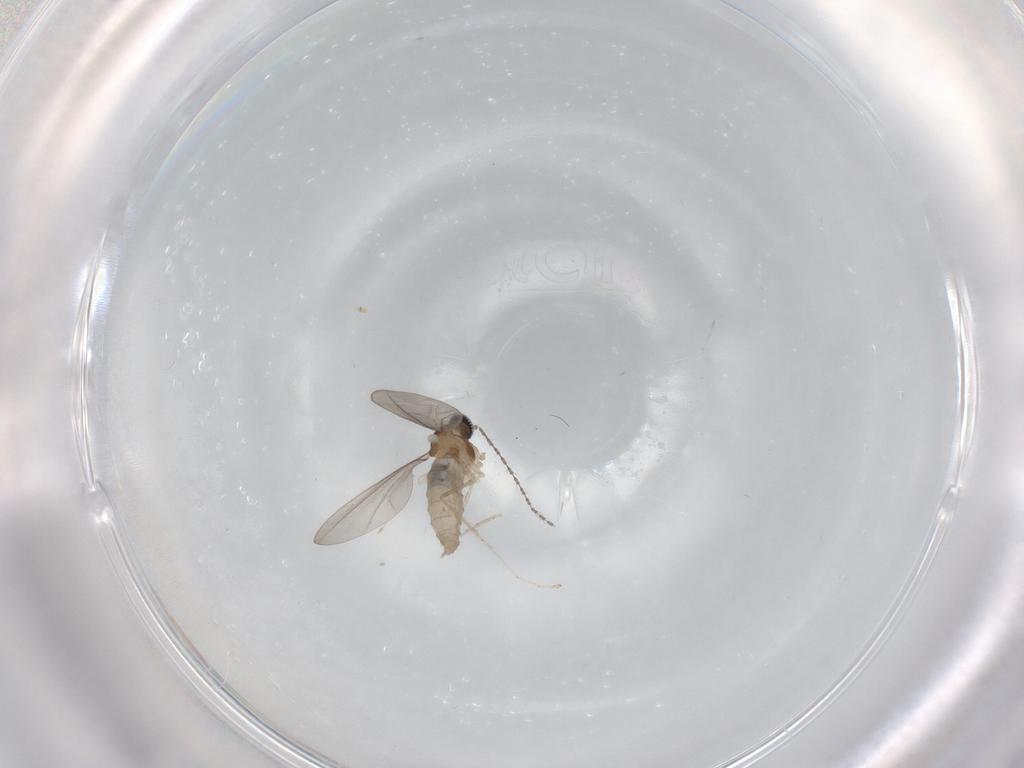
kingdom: Animalia
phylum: Arthropoda
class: Insecta
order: Diptera
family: Cecidomyiidae
